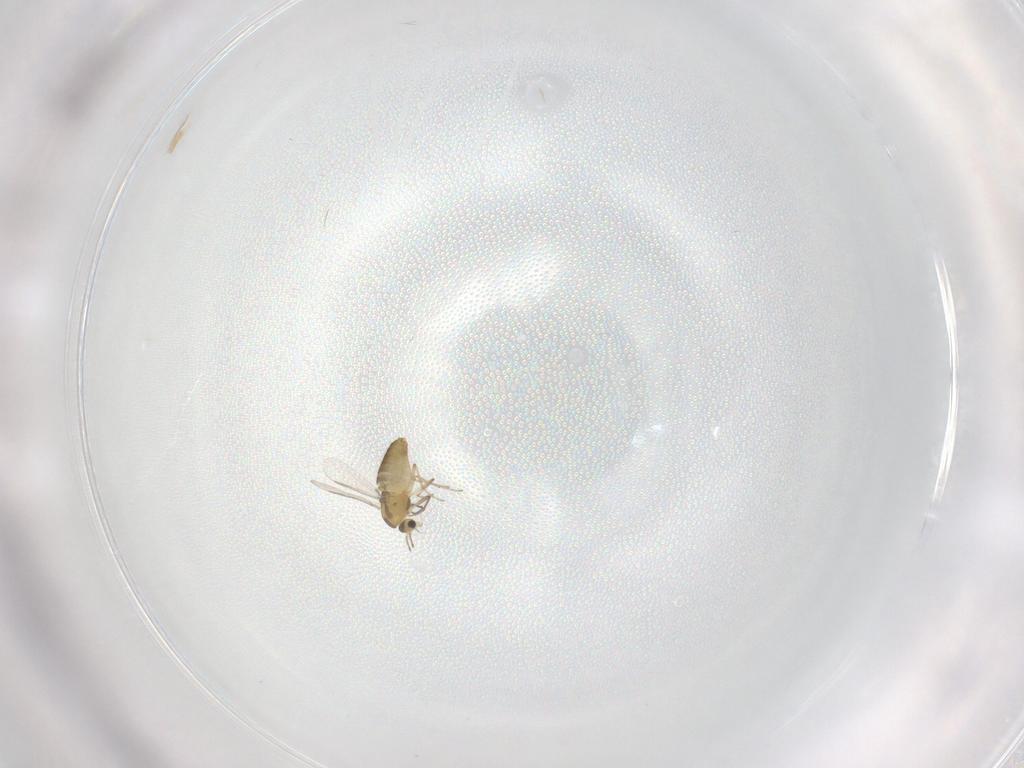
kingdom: Animalia
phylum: Arthropoda
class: Insecta
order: Diptera
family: Chironomidae
